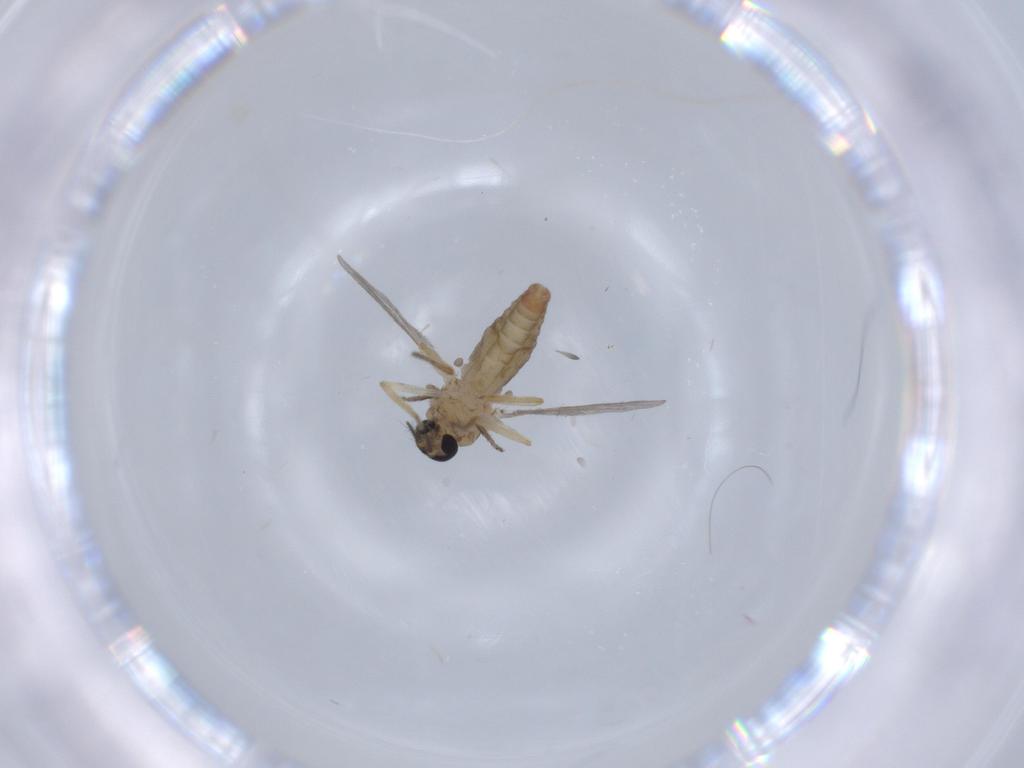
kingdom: Animalia
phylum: Arthropoda
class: Insecta
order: Diptera
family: Ceratopogonidae
